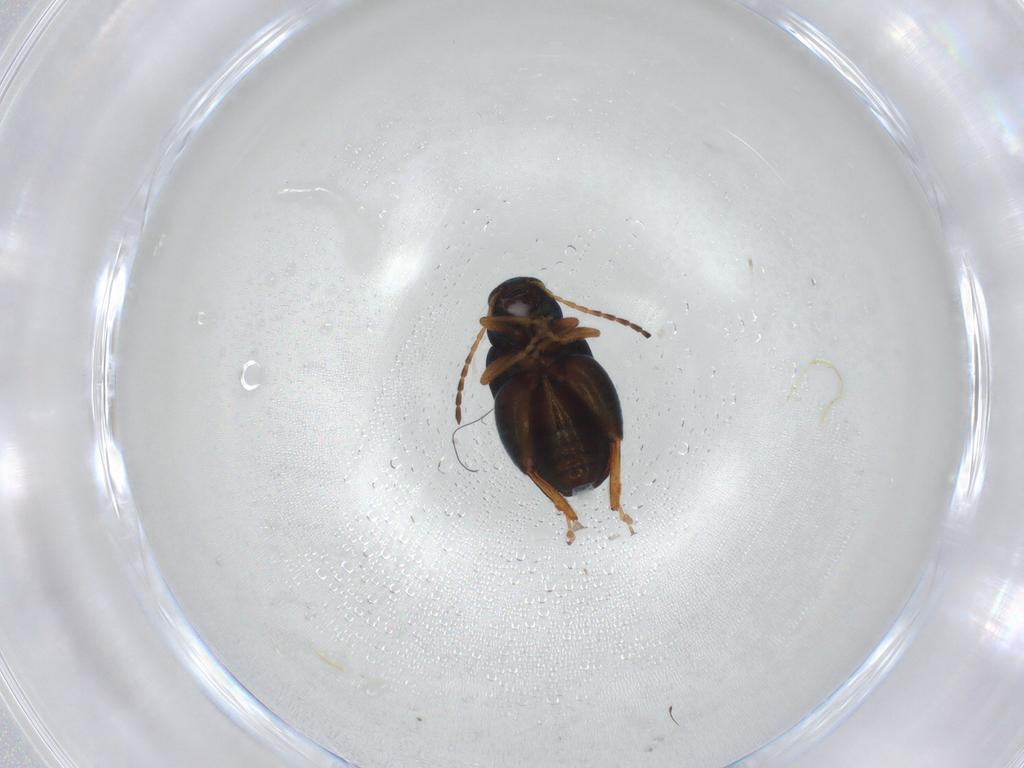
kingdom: Animalia
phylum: Arthropoda
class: Insecta
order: Coleoptera
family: Chrysomelidae
